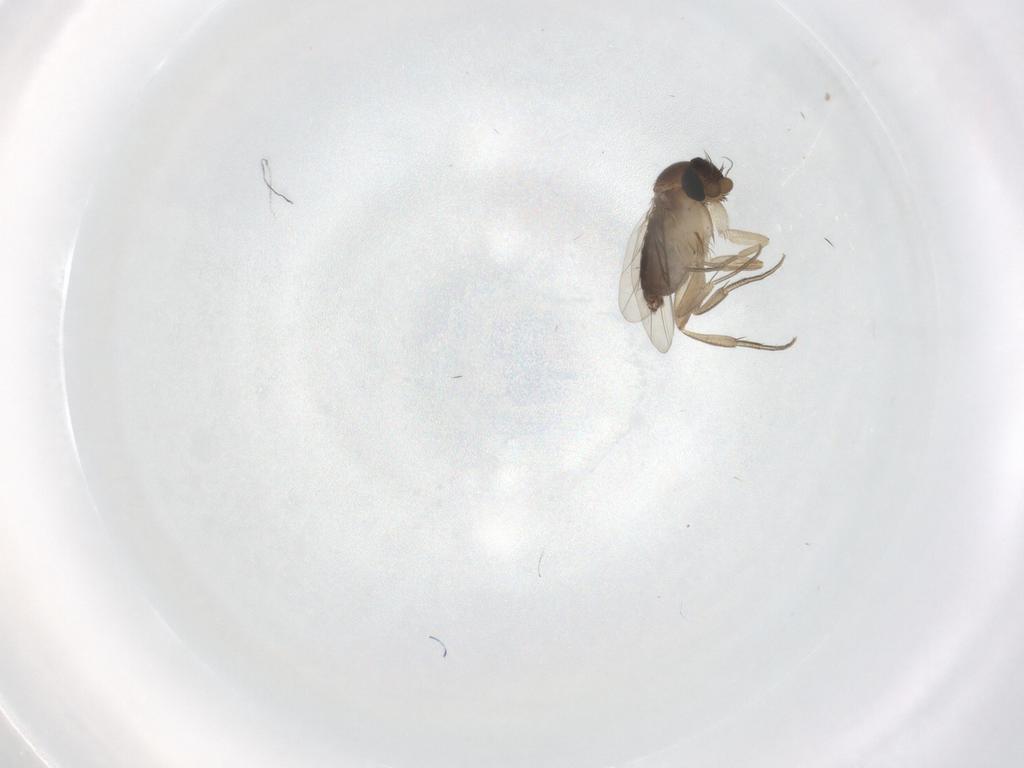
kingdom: Animalia
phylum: Arthropoda
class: Insecta
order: Diptera
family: Phoridae
